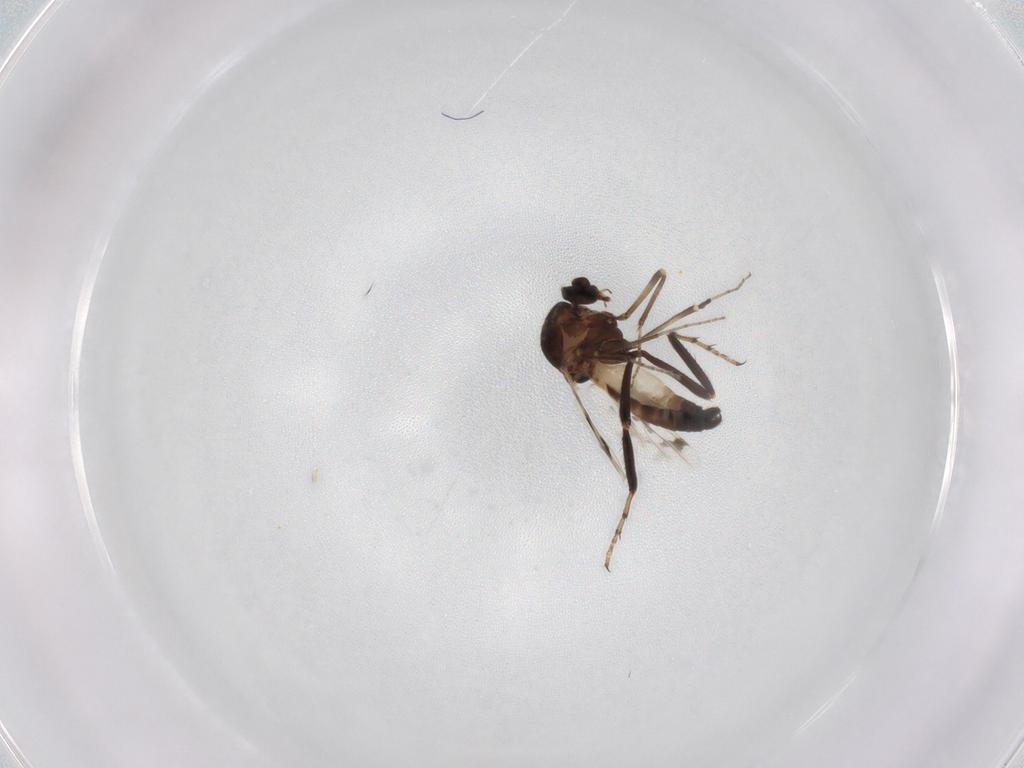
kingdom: Animalia
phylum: Arthropoda
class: Insecta
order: Diptera
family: Ceratopogonidae
